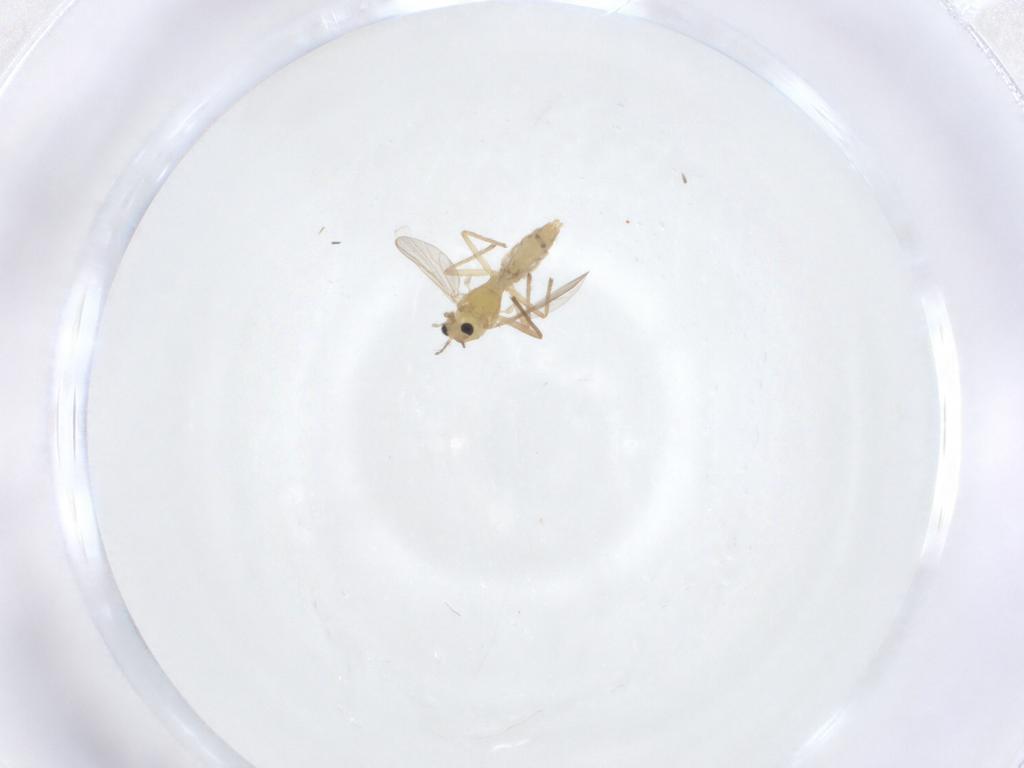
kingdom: Animalia
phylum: Arthropoda
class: Insecta
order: Diptera
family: Chironomidae
